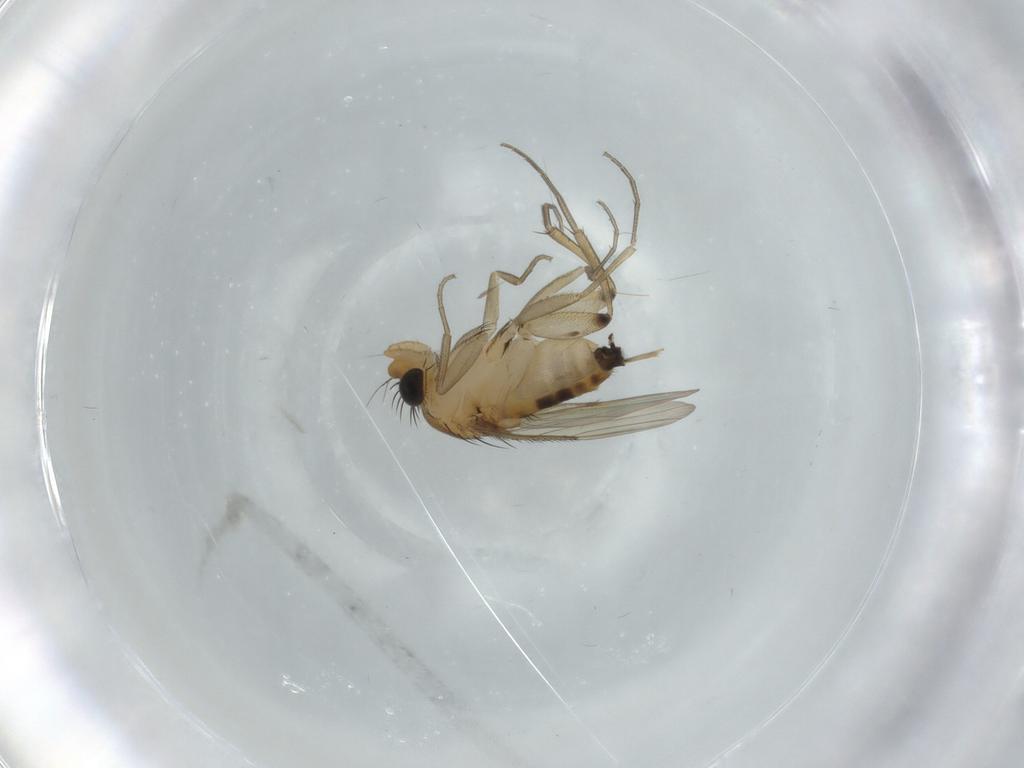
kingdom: Animalia
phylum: Arthropoda
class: Insecta
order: Diptera
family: Phoridae
